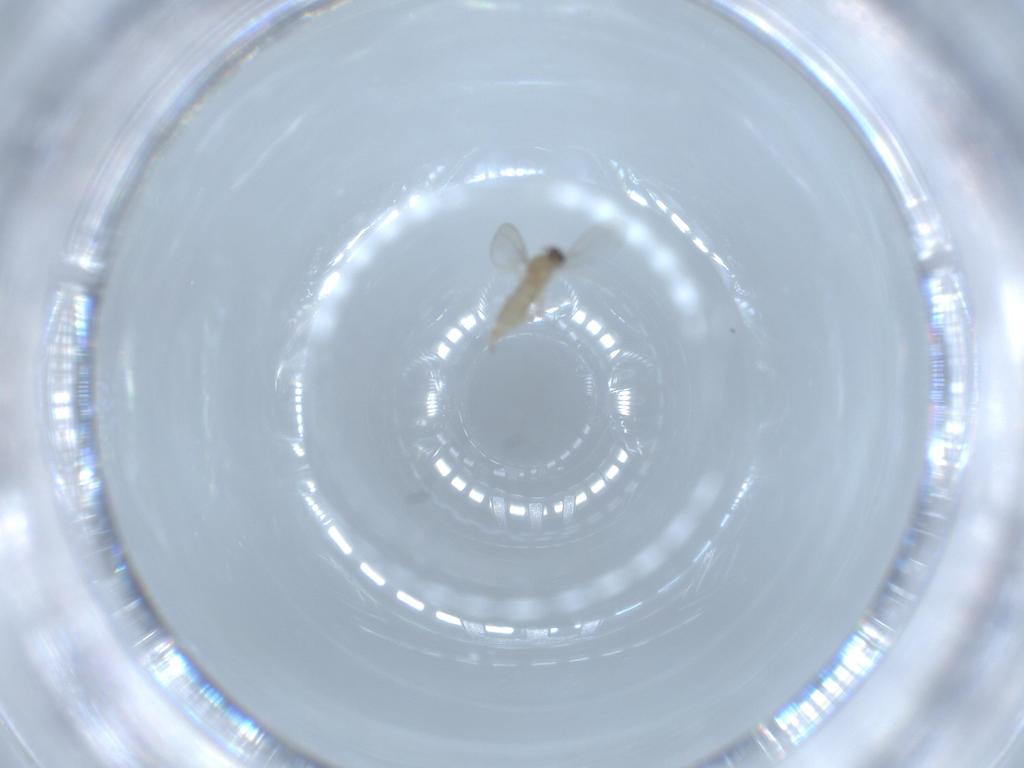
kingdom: Animalia
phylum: Arthropoda
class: Insecta
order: Diptera
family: Cecidomyiidae
